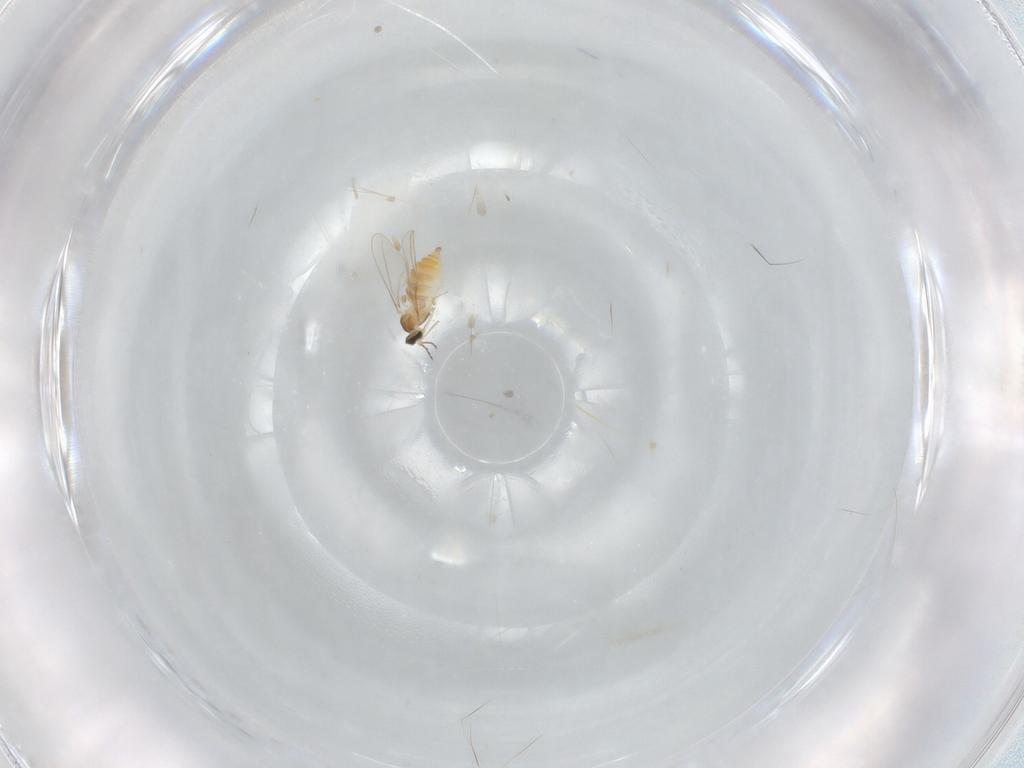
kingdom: Animalia
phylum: Arthropoda
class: Insecta
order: Diptera
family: Cecidomyiidae
